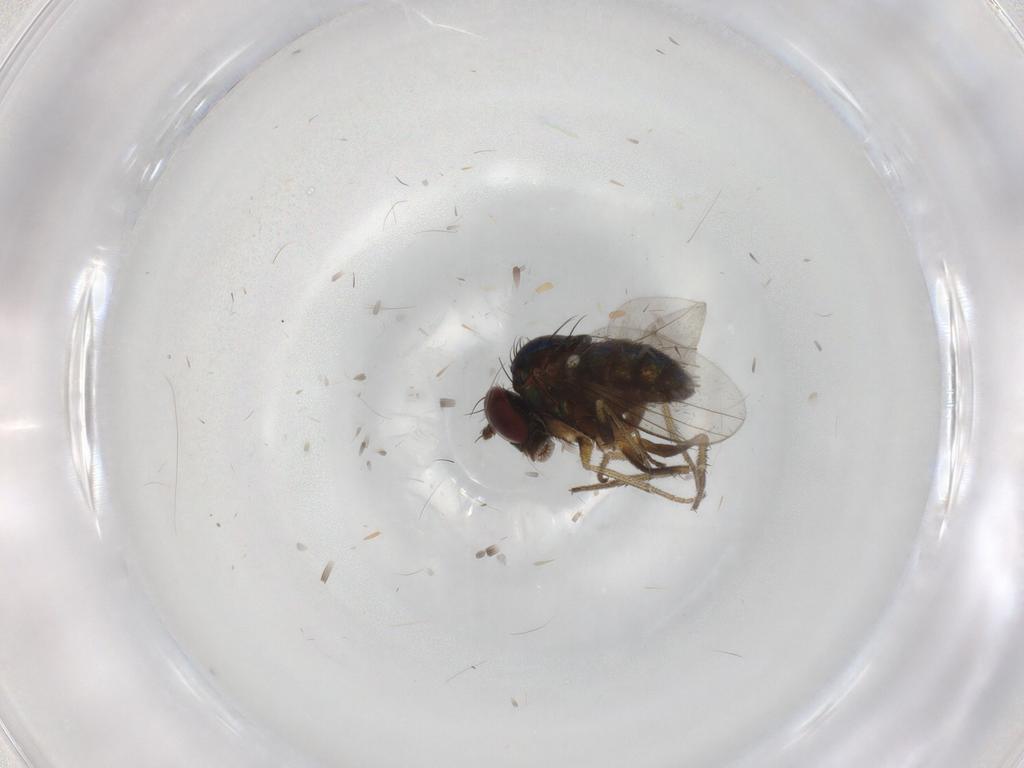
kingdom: Animalia
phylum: Arthropoda
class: Insecta
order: Diptera
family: Psychodidae
